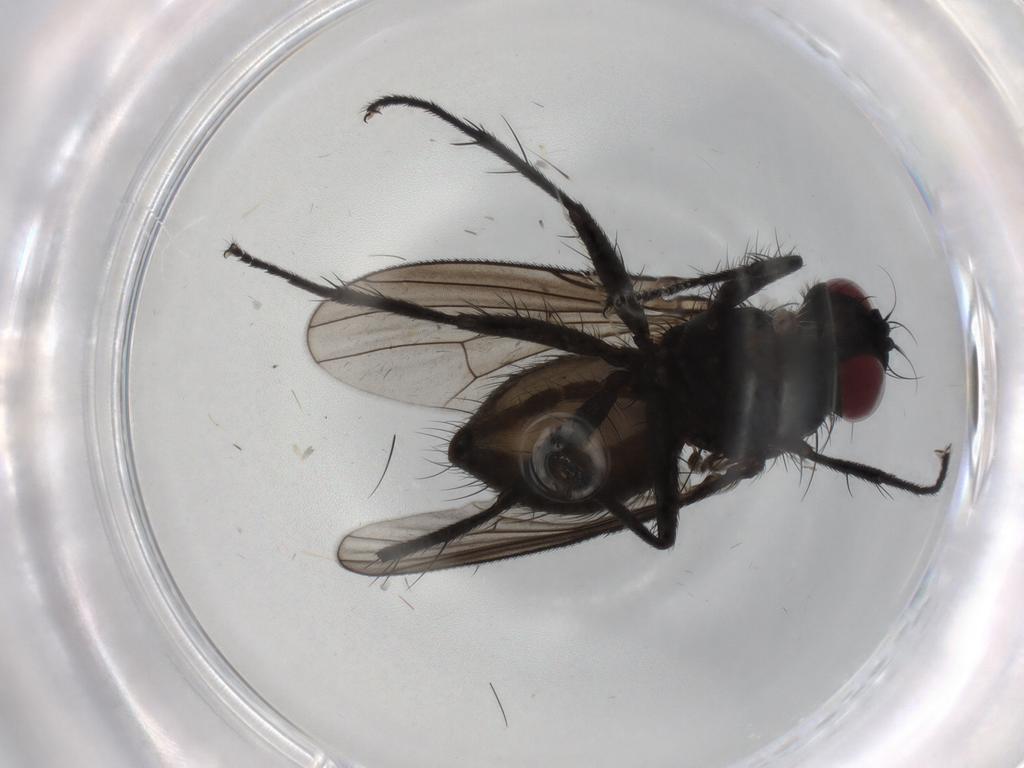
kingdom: Animalia
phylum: Arthropoda
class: Insecta
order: Diptera
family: Muscidae
